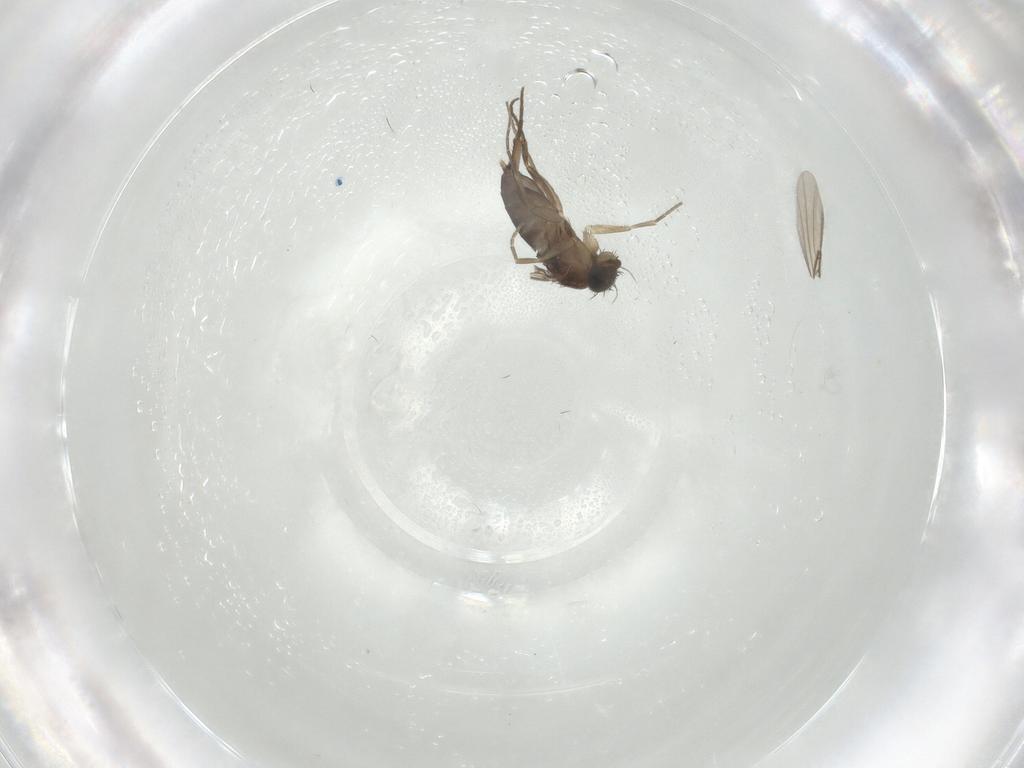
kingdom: Animalia
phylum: Arthropoda
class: Insecta
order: Diptera
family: Phoridae
